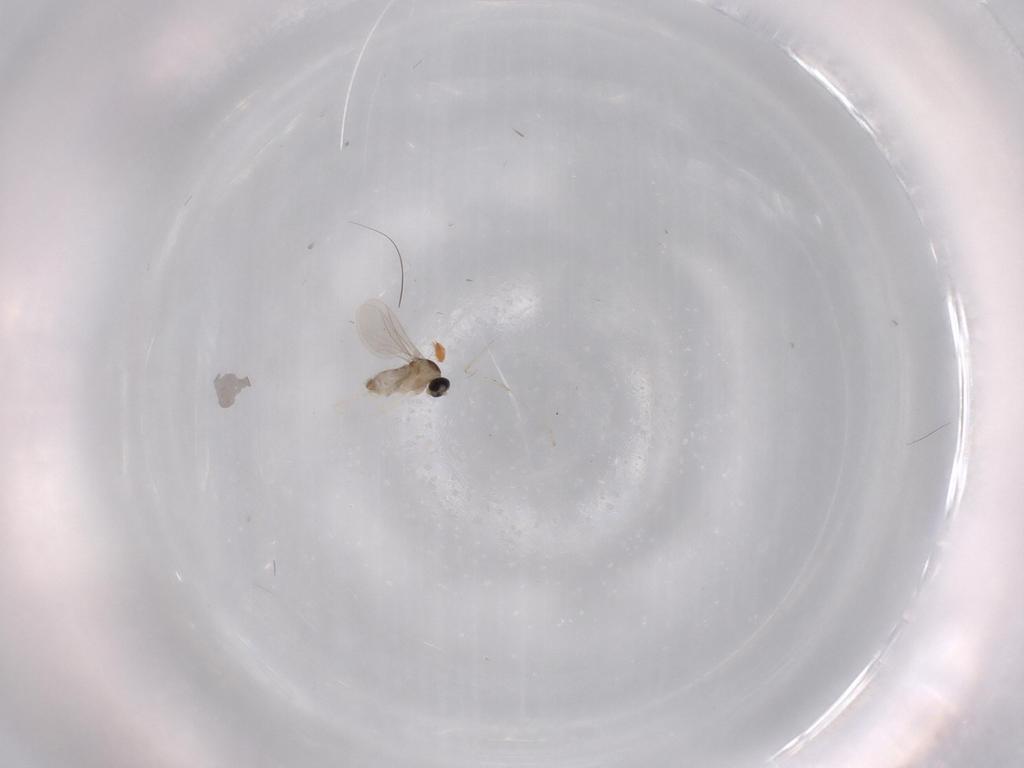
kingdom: Animalia
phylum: Arthropoda
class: Insecta
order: Diptera
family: Cecidomyiidae
